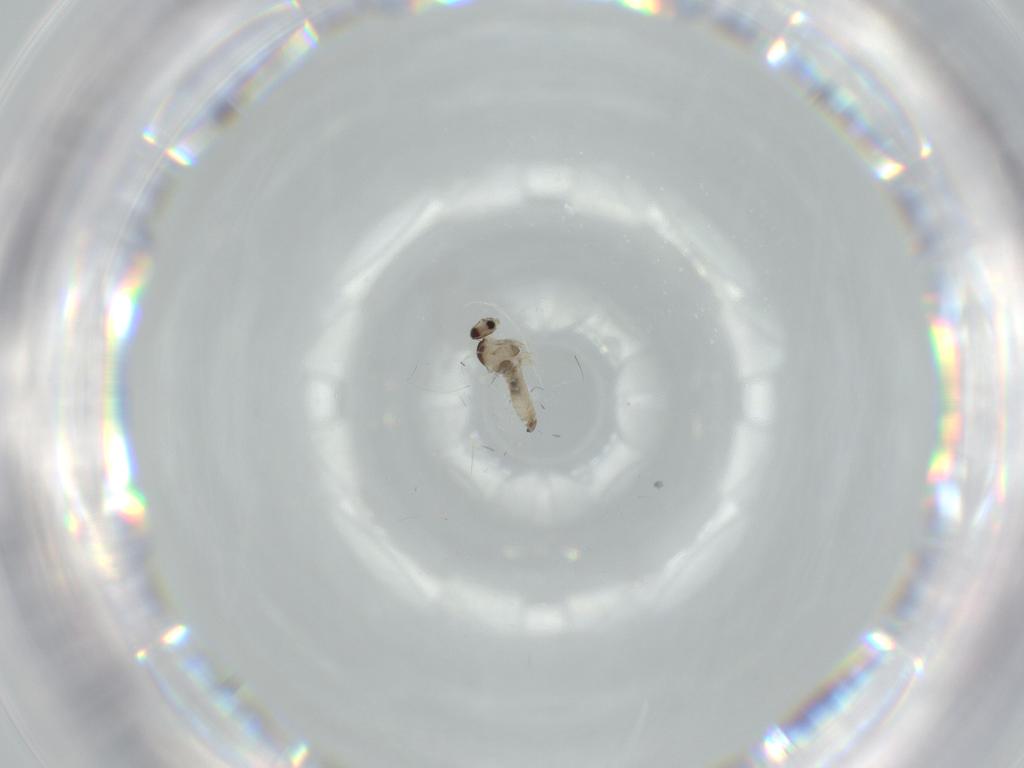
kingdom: Animalia
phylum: Arthropoda
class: Insecta
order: Diptera
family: Cecidomyiidae
